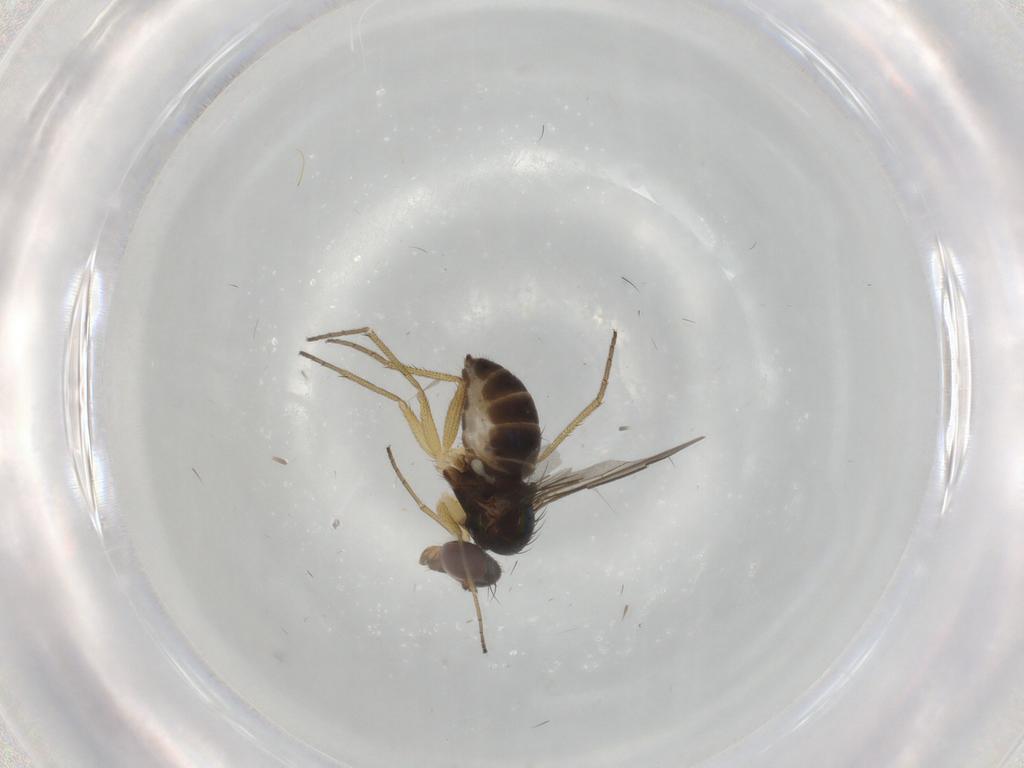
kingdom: Animalia
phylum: Arthropoda
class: Insecta
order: Diptera
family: Dolichopodidae
